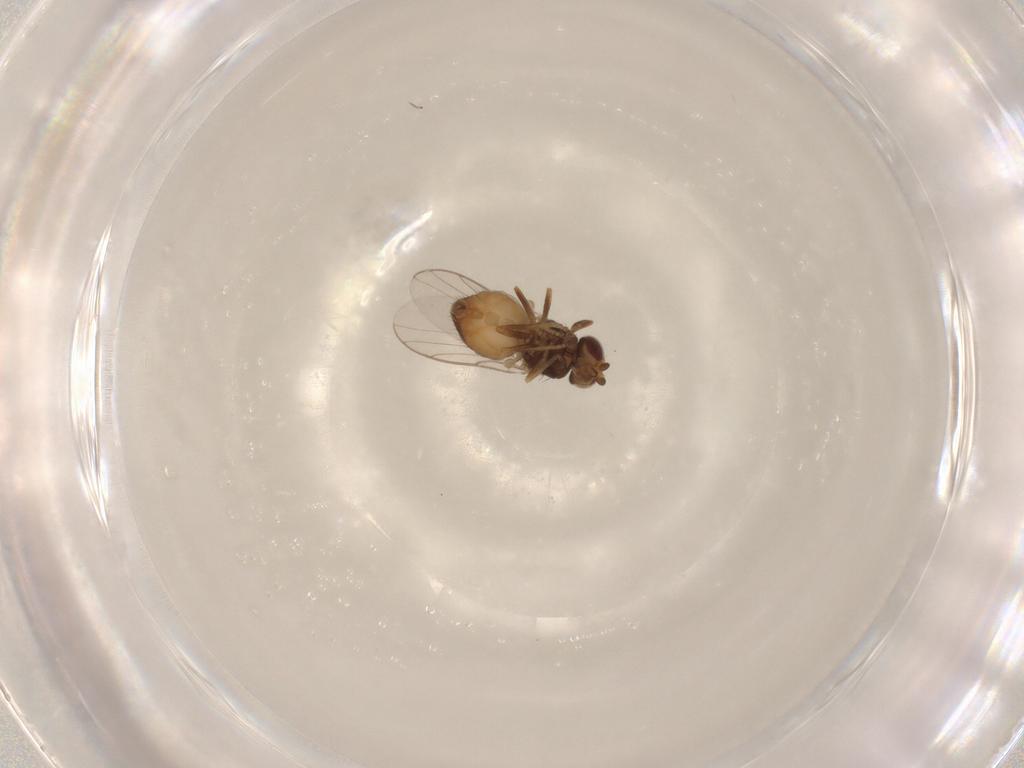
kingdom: Animalia
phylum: Arthropoda
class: Insecta
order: Diptera
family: Chloropidae
